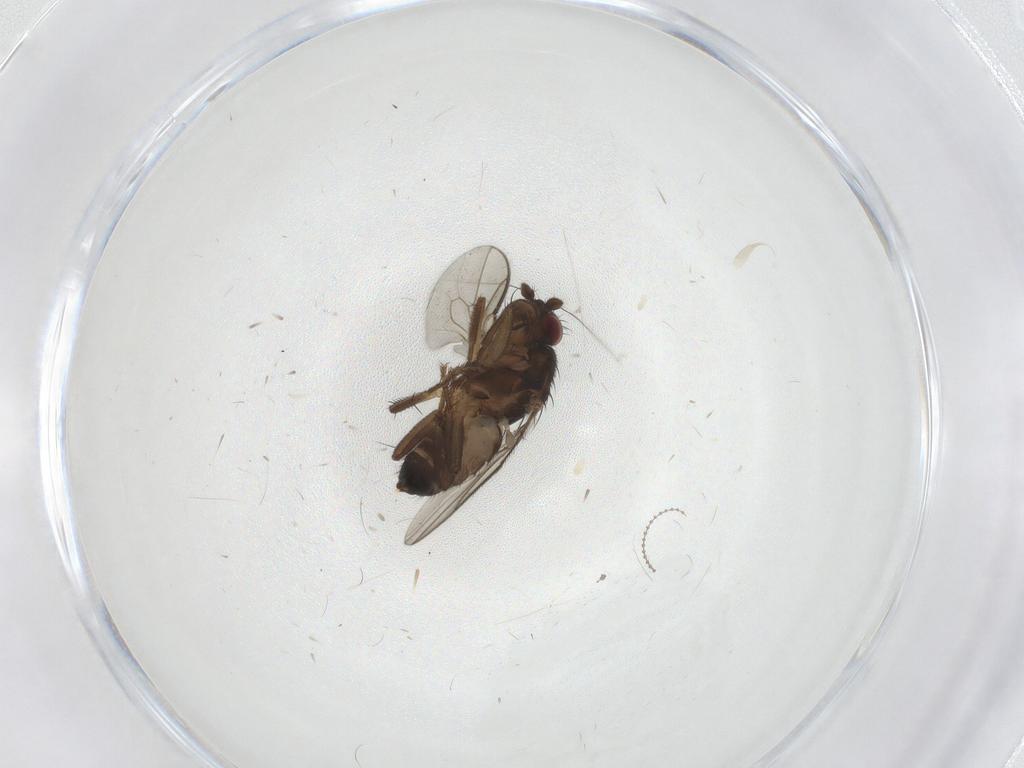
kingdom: Animalia
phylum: Arthropoda
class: Insecta
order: Diptera
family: Sphaeroceridae
